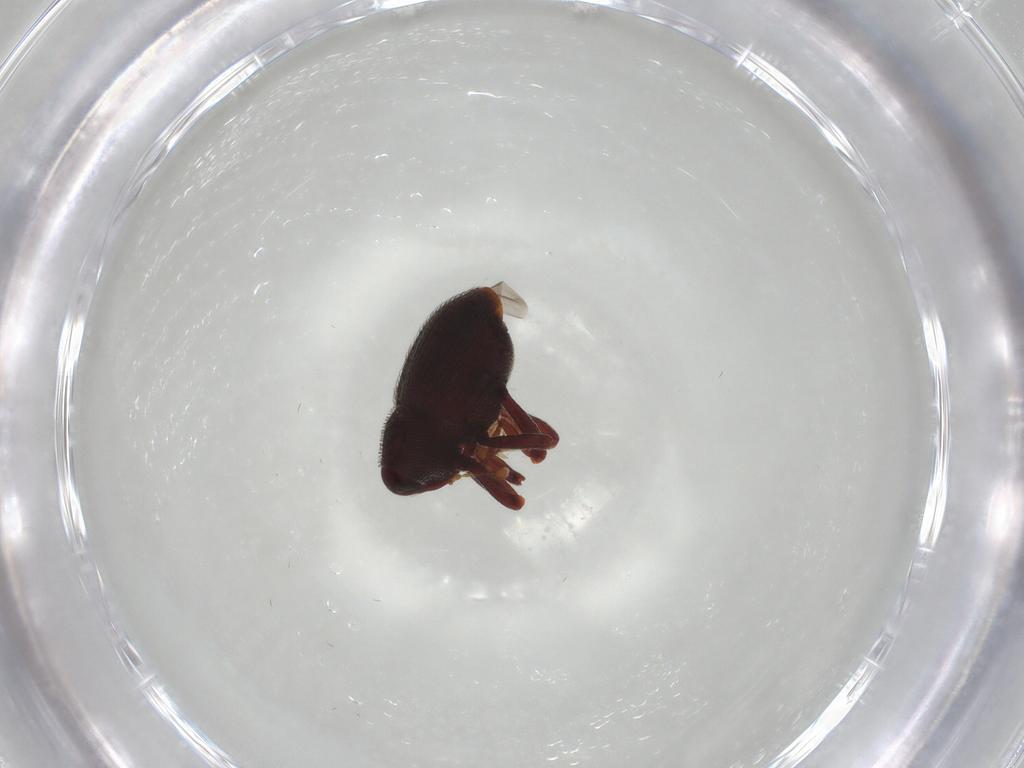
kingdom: Animalia
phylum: Arthropoda
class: Insecta
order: Coleoptera
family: Curculionidae
